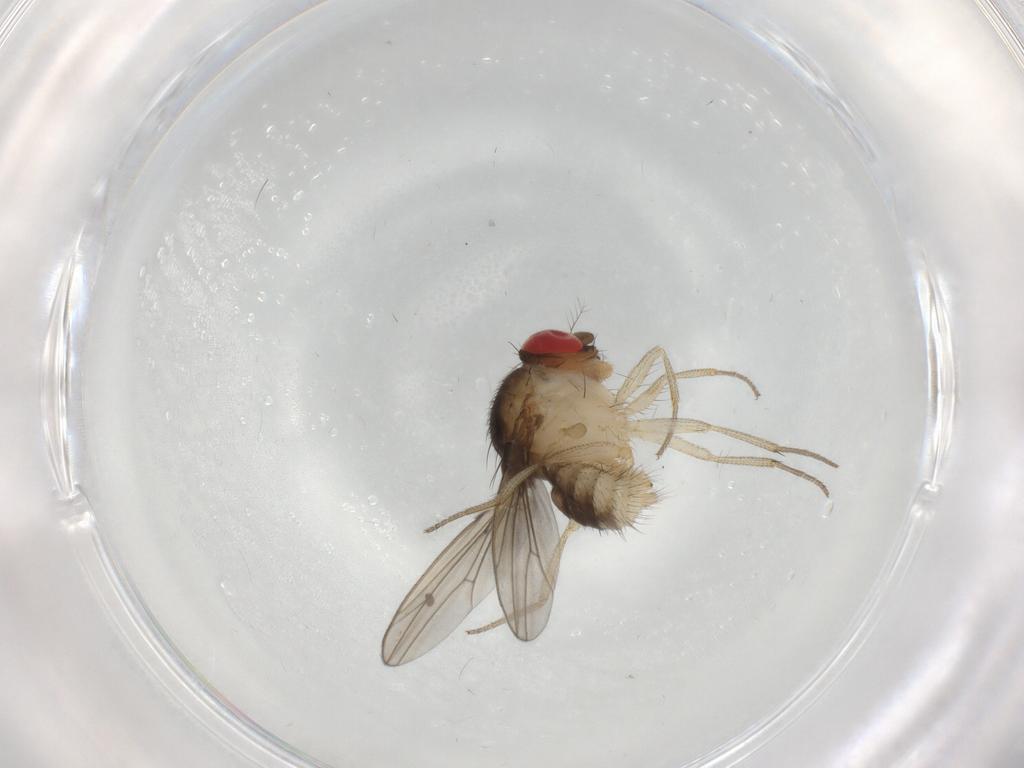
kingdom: Animalia
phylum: Arthropoda
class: Insecta
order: Diptera
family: Drosophilidae
